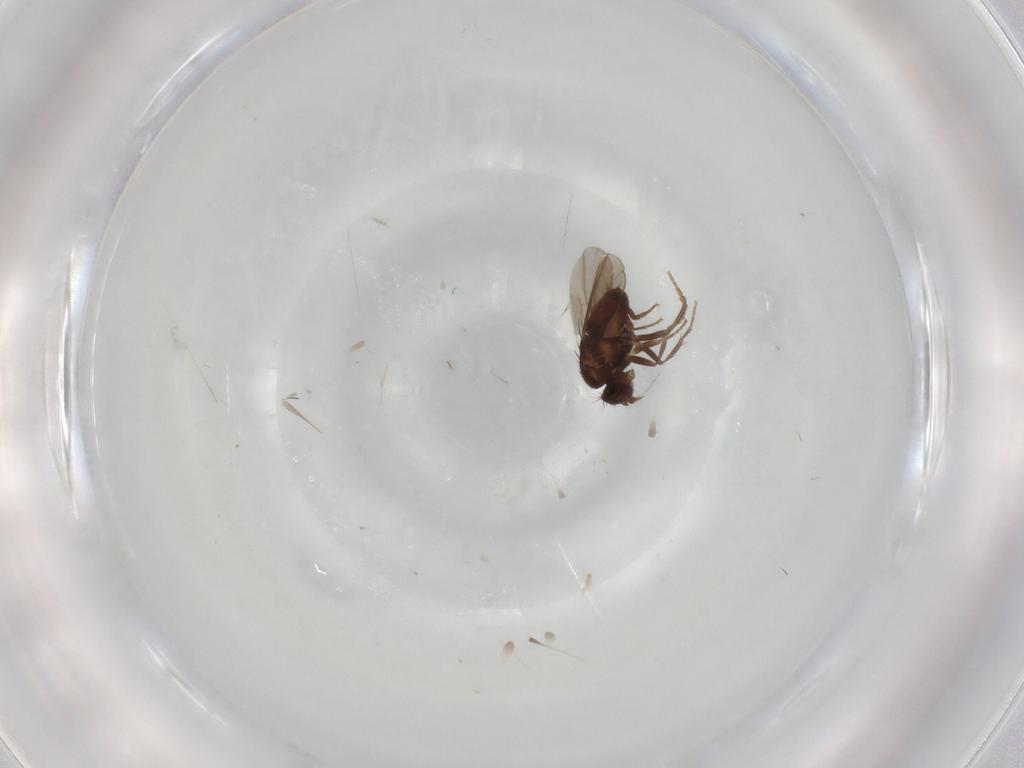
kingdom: Animalia
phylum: Arthropoda
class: Insecta
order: Diptera
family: Sphaeroceridae
